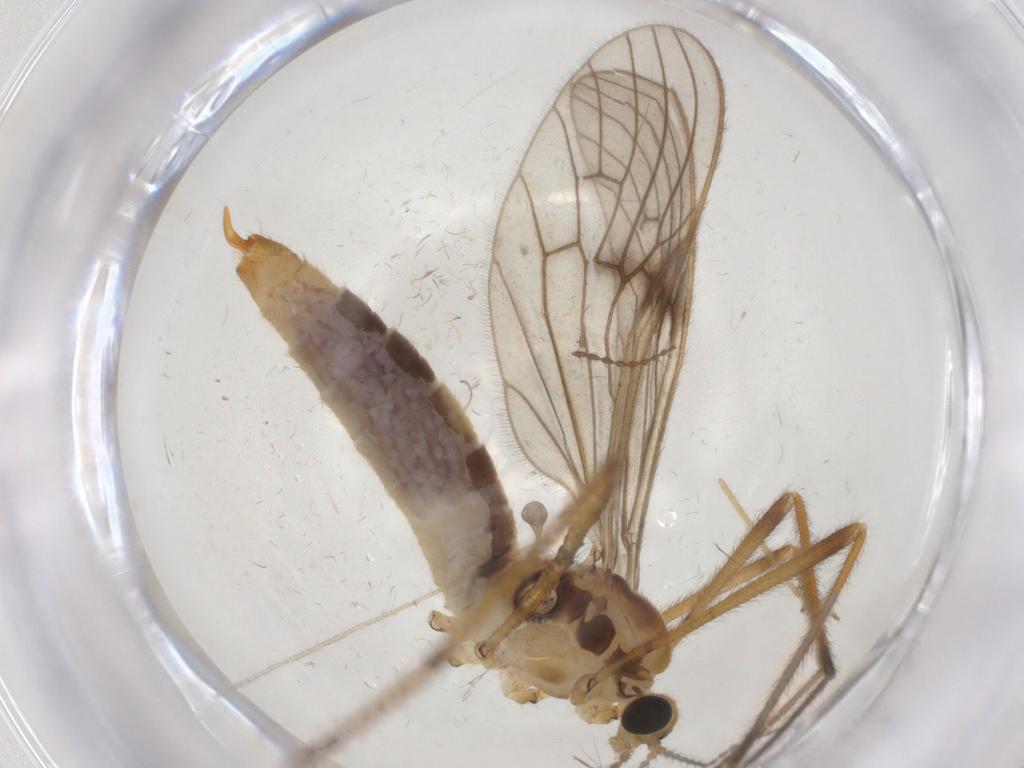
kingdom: Animalia
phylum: Arthropoda
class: Insecta
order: Diptera
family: Limoniidae
